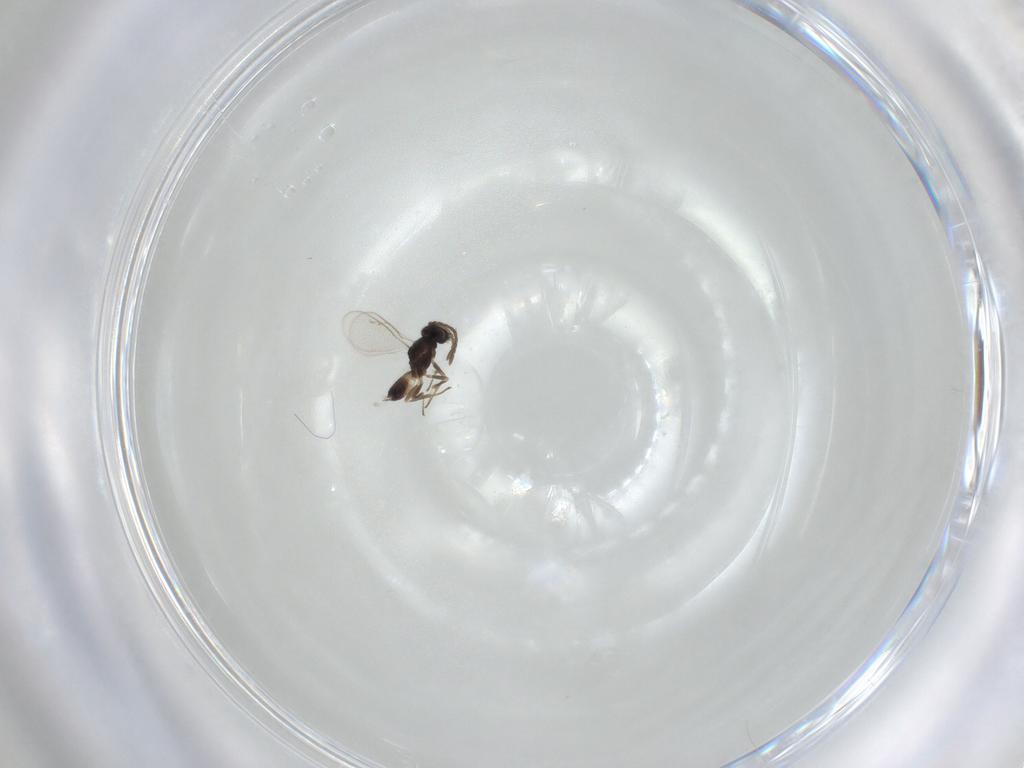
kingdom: Animalia
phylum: Arthropoda
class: Insecta
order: Hymenoptera
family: Eupelmidae
